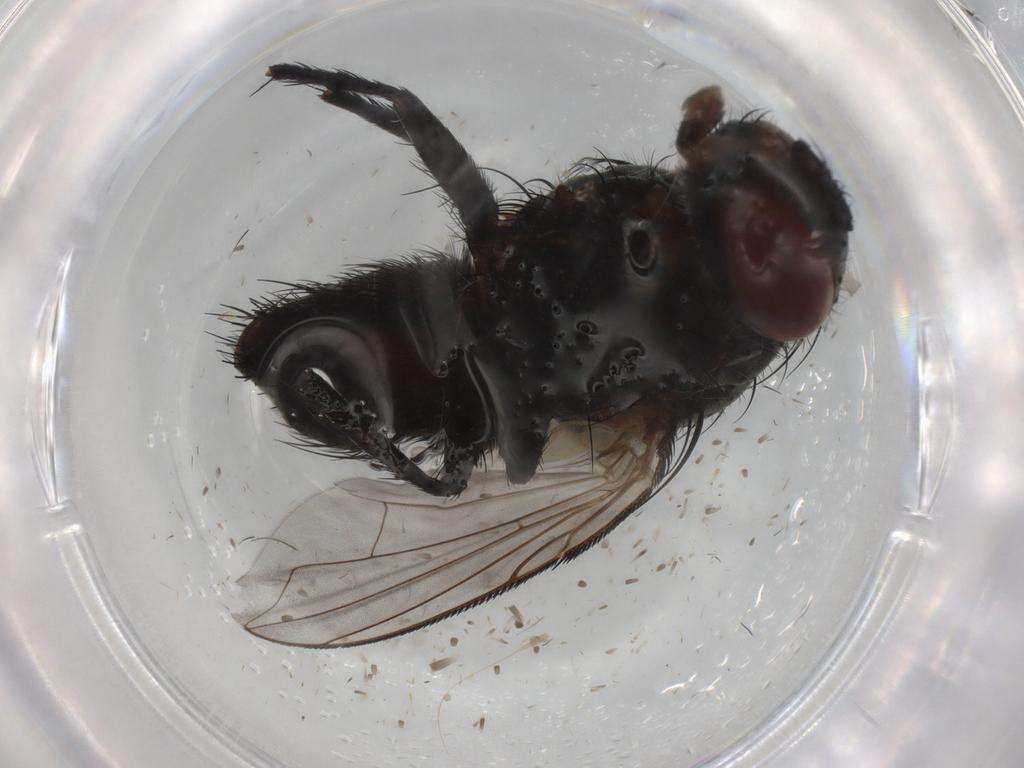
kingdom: Animalia
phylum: Arthropoda
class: Insecta
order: Diptera
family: Tachinidae
